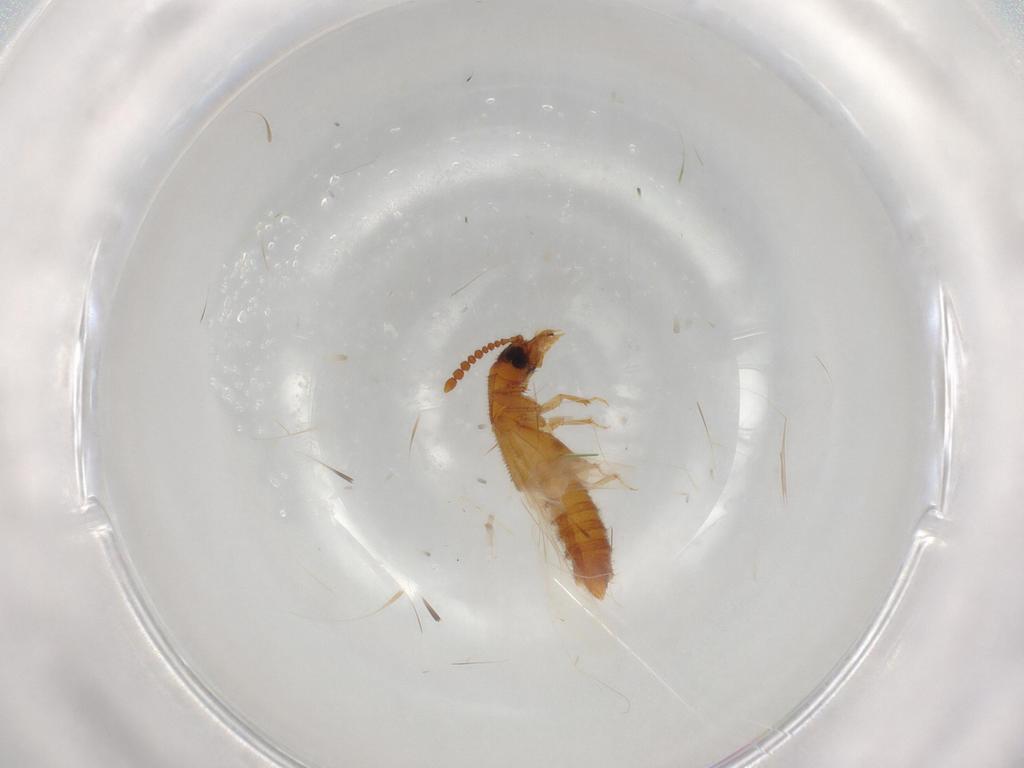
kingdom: Animalia
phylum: Arthropoda
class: Insecta
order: Coleoptera
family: Staphylinidae
